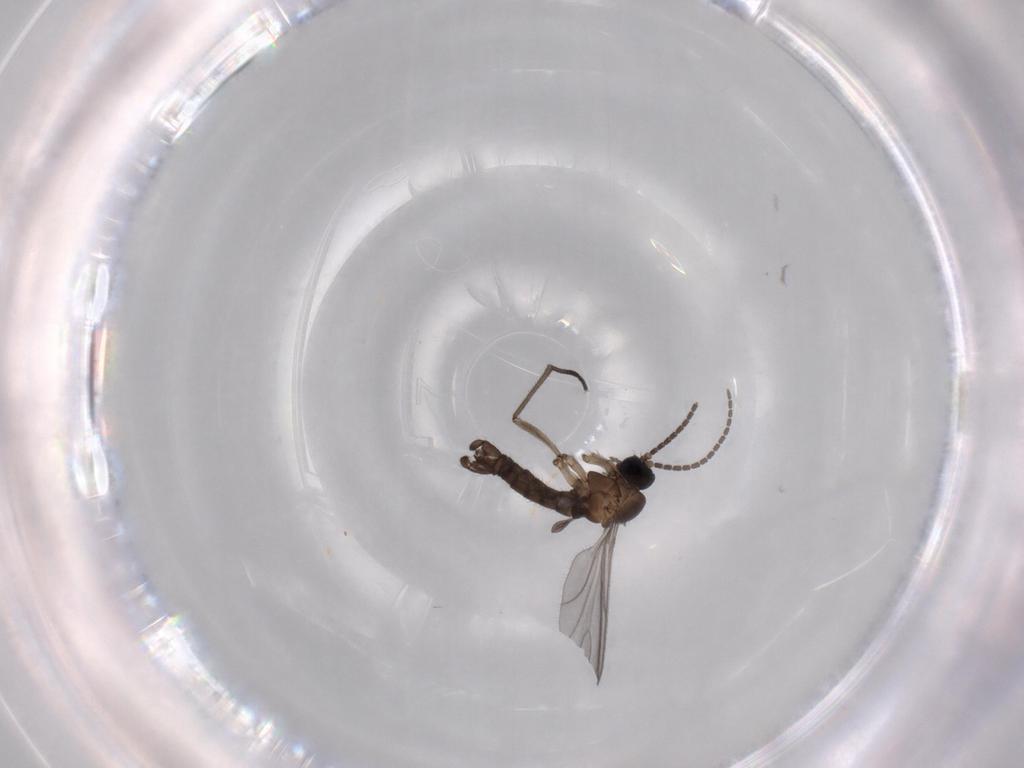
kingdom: Animalia
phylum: Arthropoda
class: Insecta
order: Diptera
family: Sciaridae
